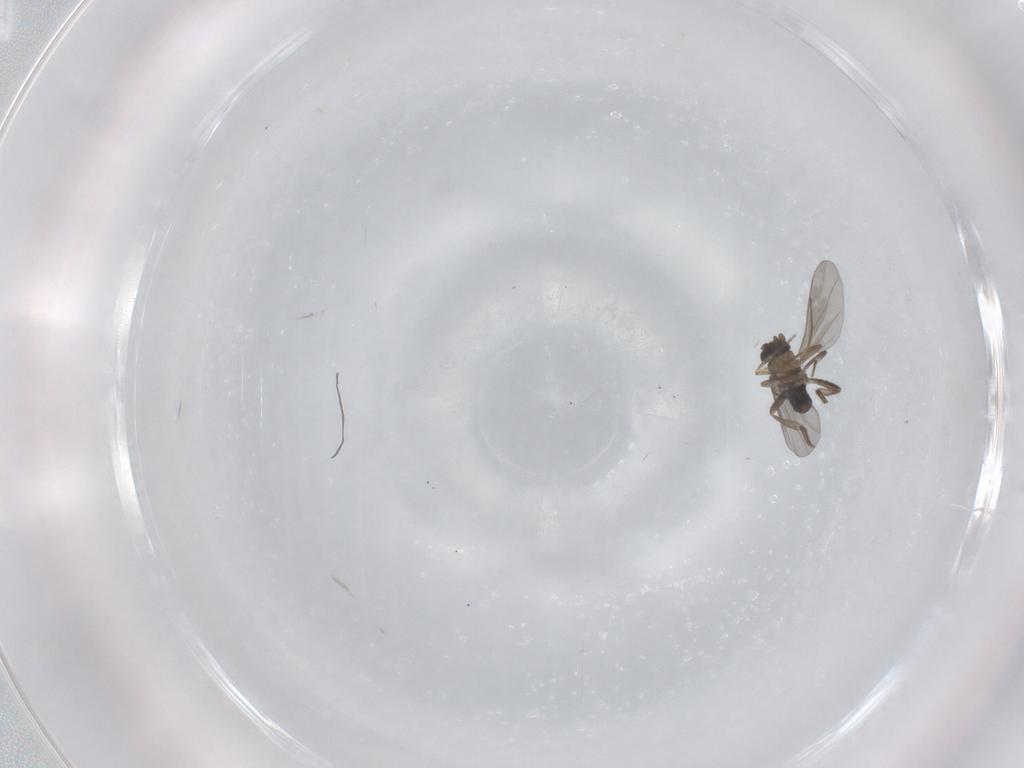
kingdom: Animalia
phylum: Arthropoda
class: Insecta
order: Diptera
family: Phoridae
